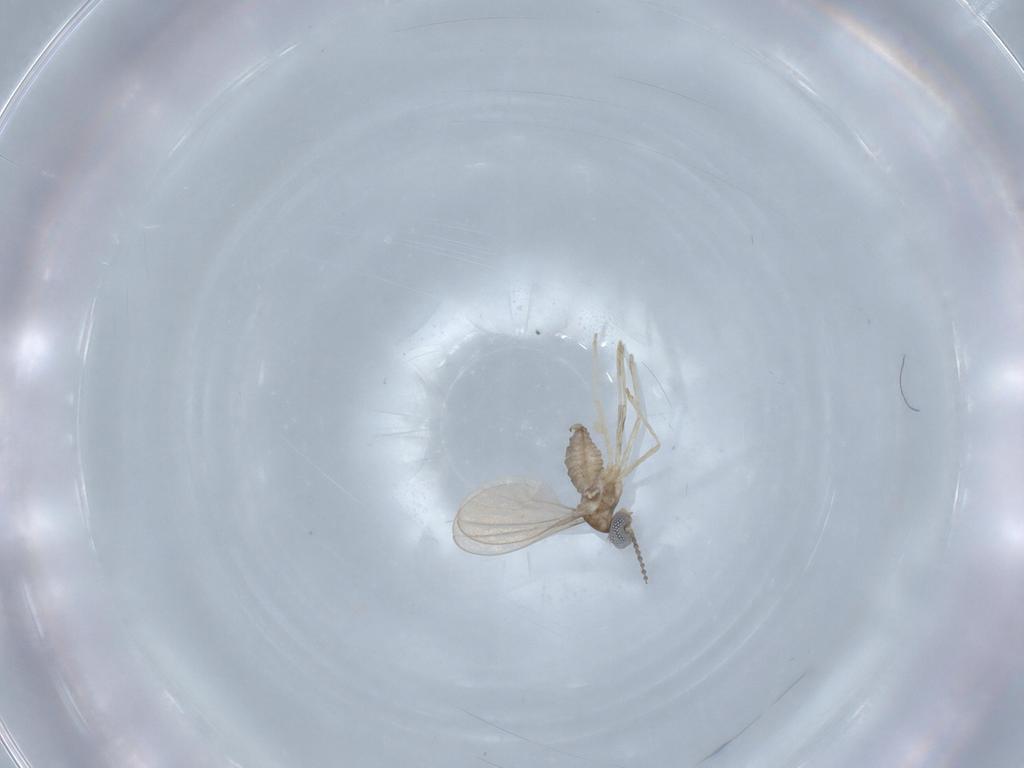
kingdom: Animalia
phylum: Arthropoda
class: Insecta
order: Diptera
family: Cecidomyiidae
